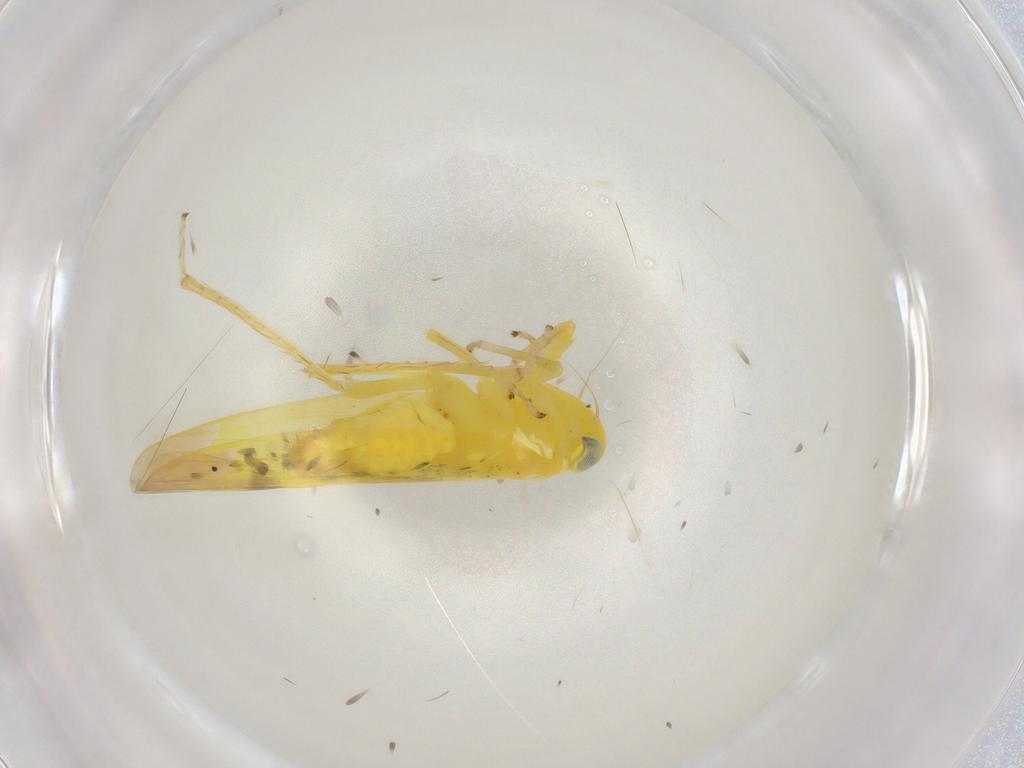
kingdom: Animalia
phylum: Arthropoda
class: Insecta
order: Hemiptera
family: Cicadellidae
